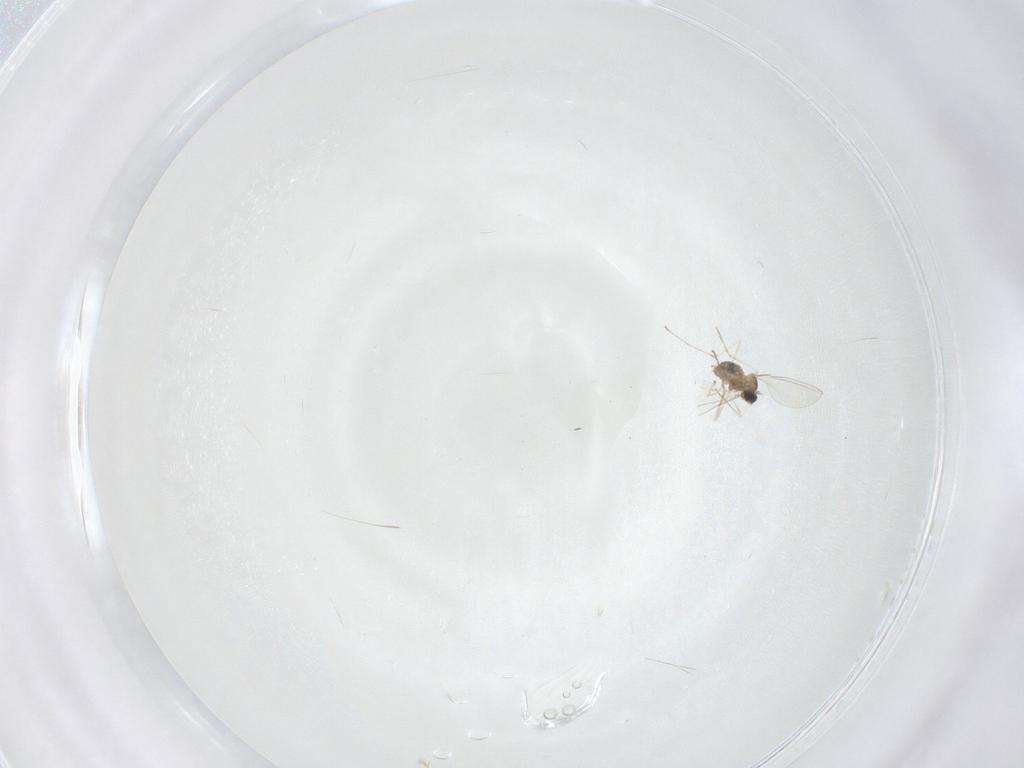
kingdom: Animalia
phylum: Arthropoda
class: Insecta
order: Diptera
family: Cecidomyiidae
